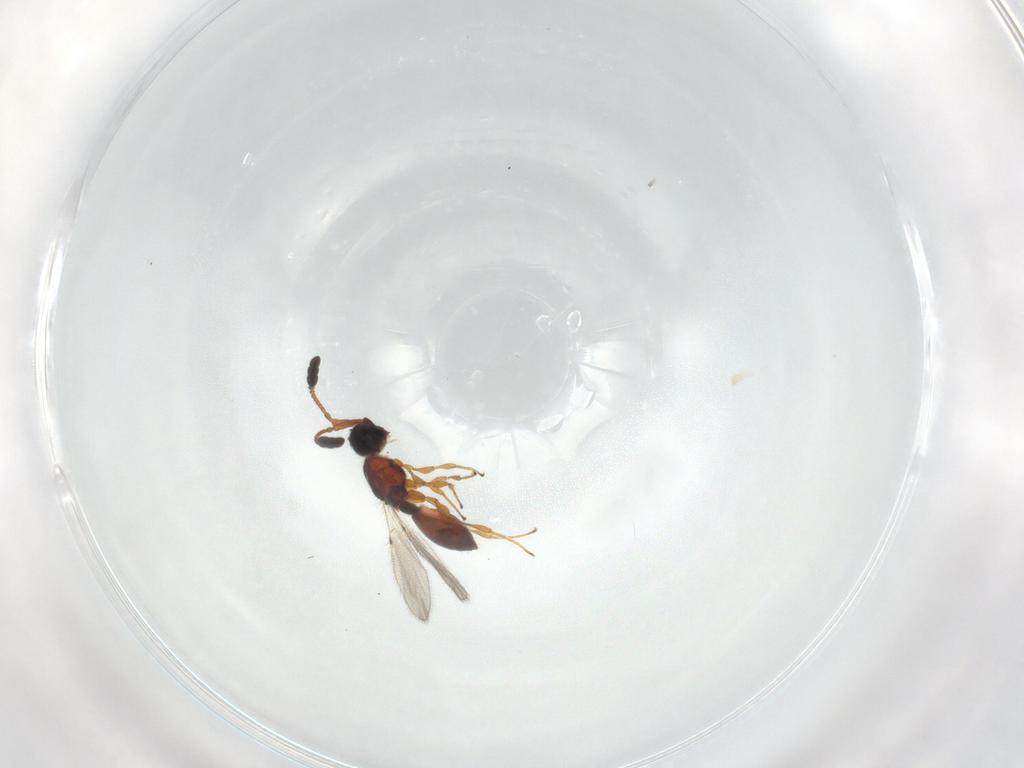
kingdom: Animalia
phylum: Arthropoda
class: Insecta
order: Hymenoptera
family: Diapriidae
